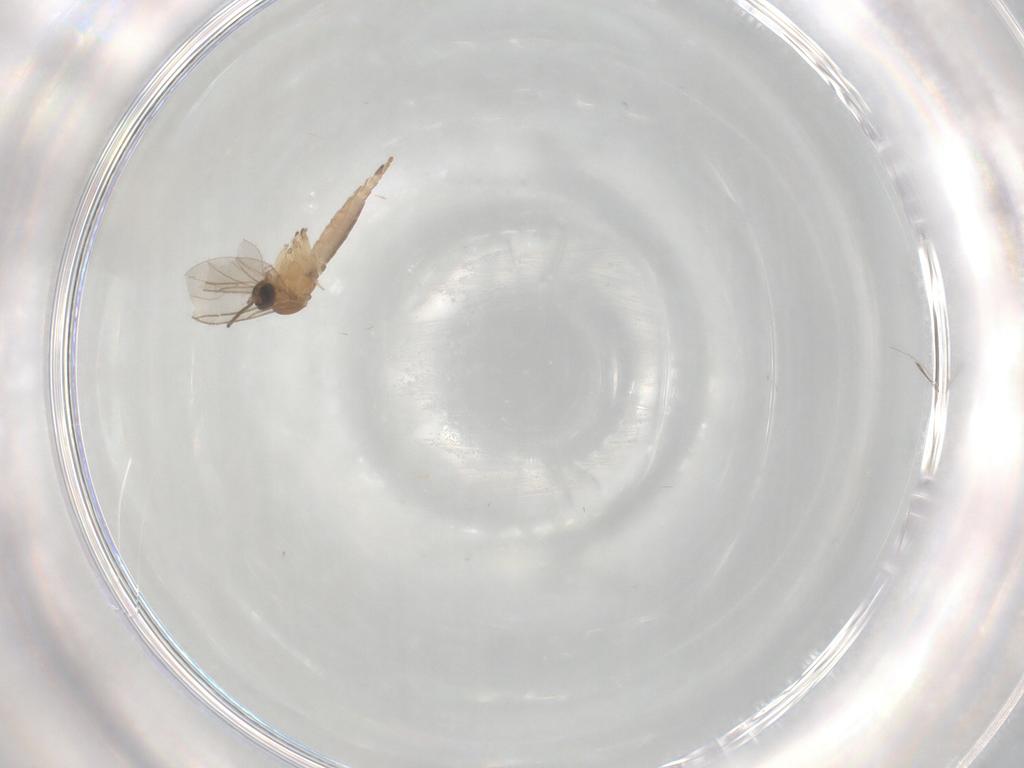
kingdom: Animalia
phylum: Arthropoda
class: Insecta
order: Diptera
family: Sciaridae
